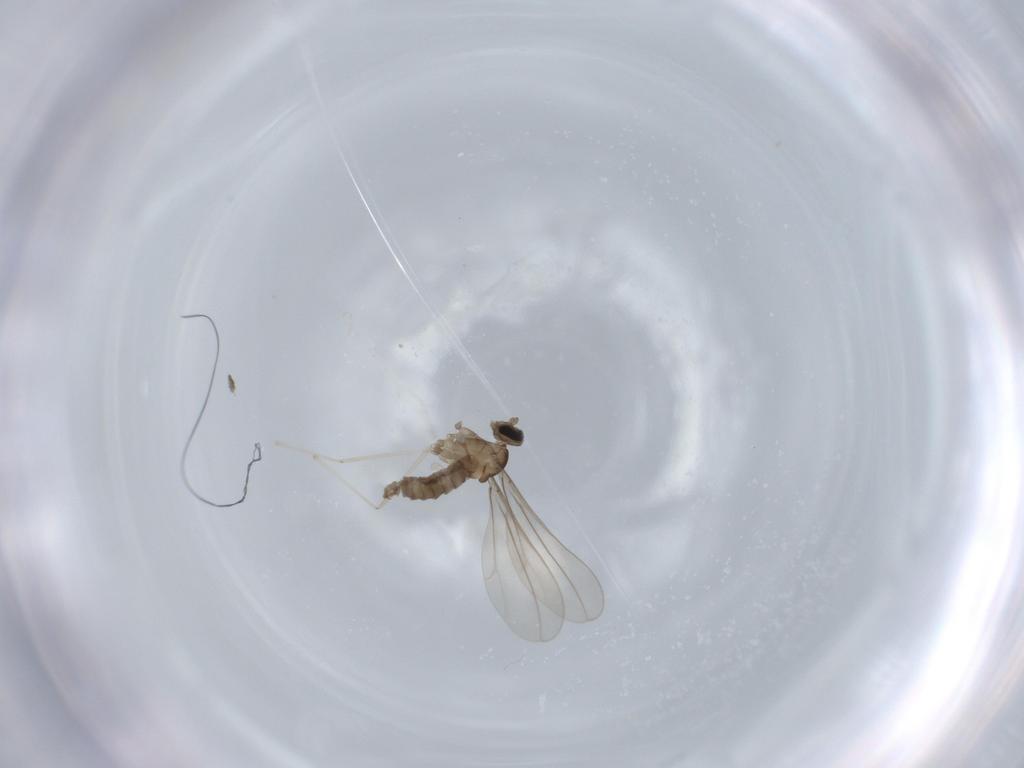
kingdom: Animalia
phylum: Arthropoda
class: Insecta
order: Diptera
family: Cecidomyiidae
